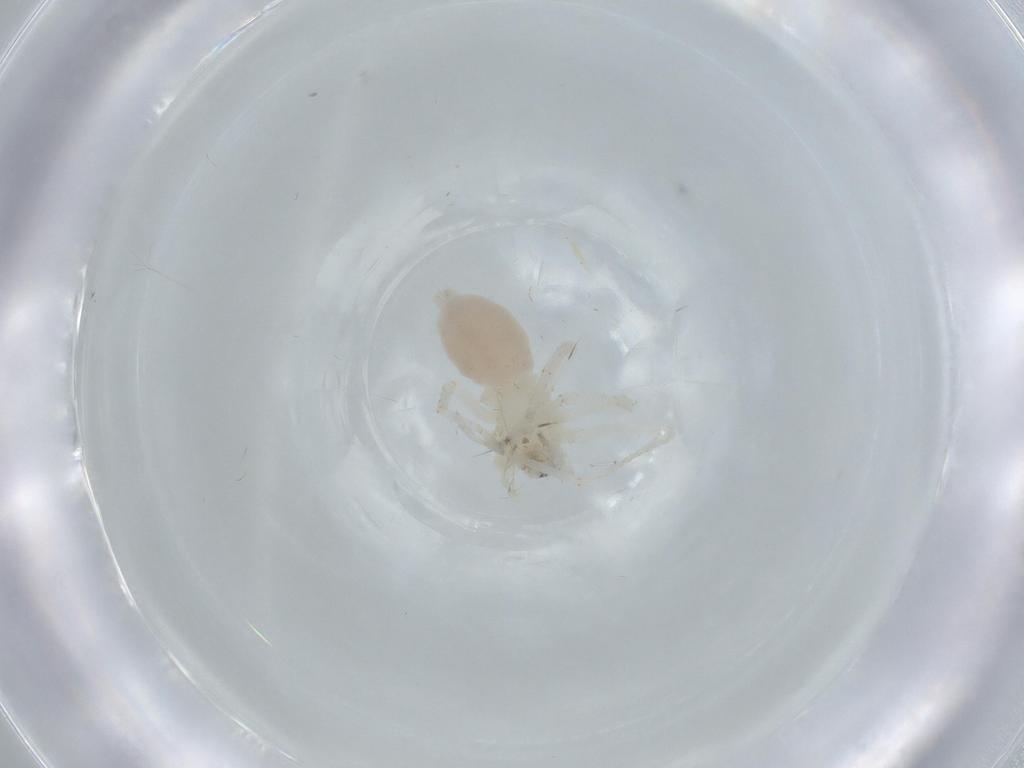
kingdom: Animalia
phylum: Arthropoda
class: Arachnida
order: Araneae
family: Anyphaenidae
